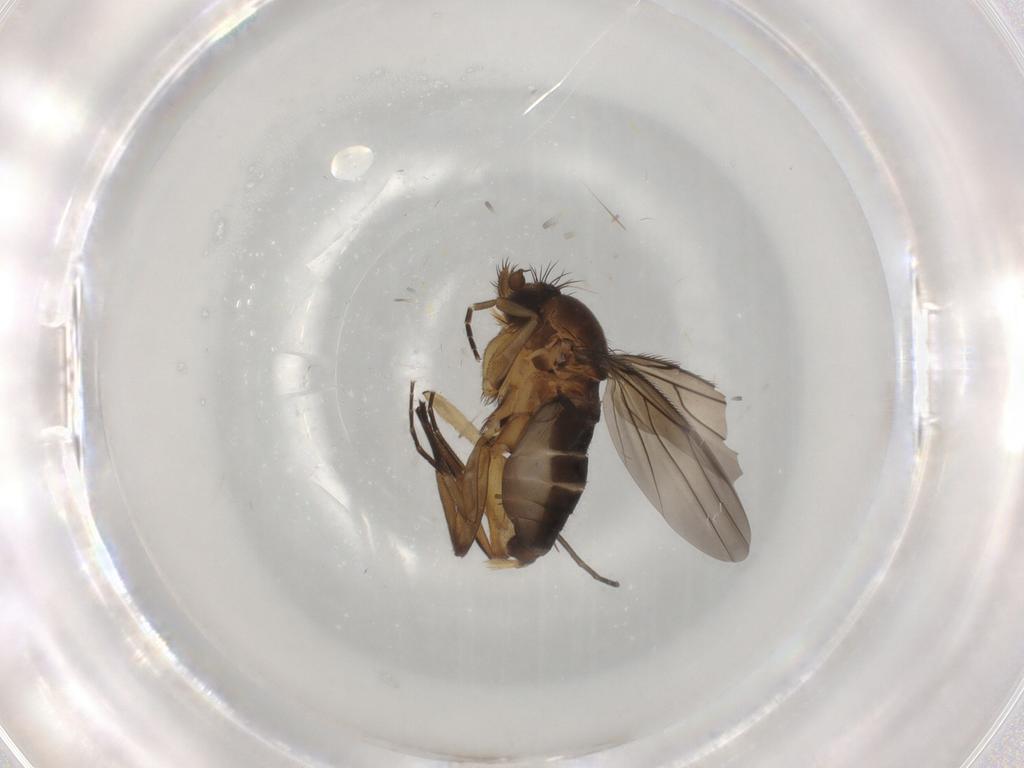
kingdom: Animalia
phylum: Arthropoda
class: Insecta
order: Diptera
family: Phoridae
